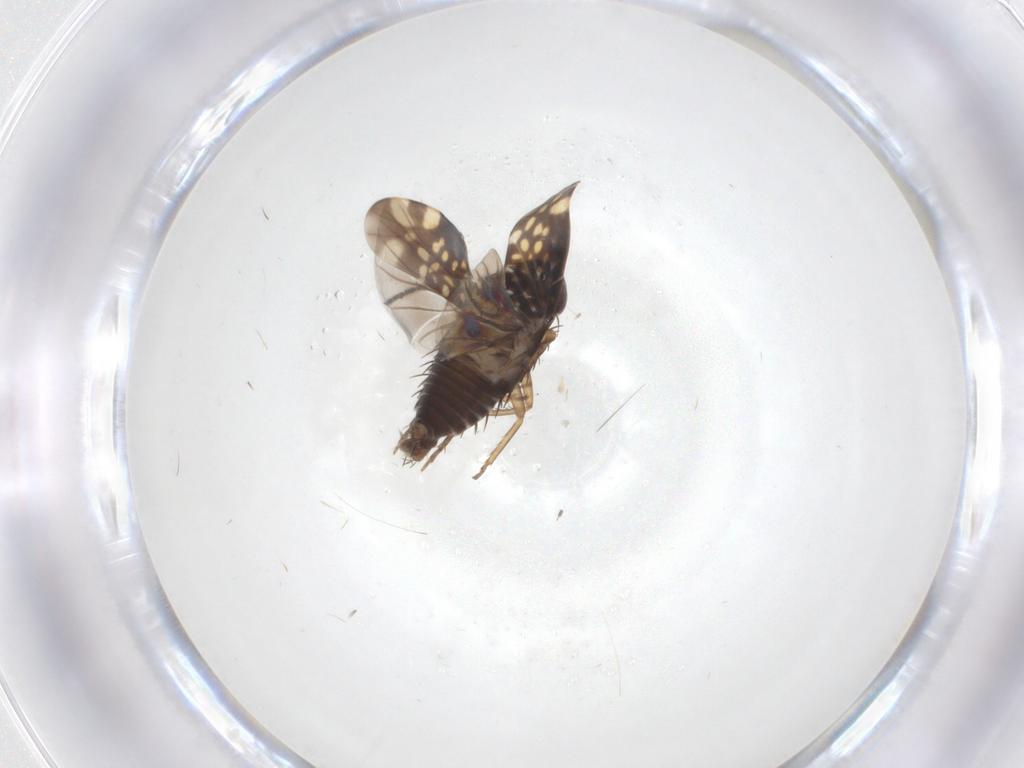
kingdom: Animalia
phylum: Arthropoda
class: Insecta
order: Hemiptera
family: Cicadellidae
